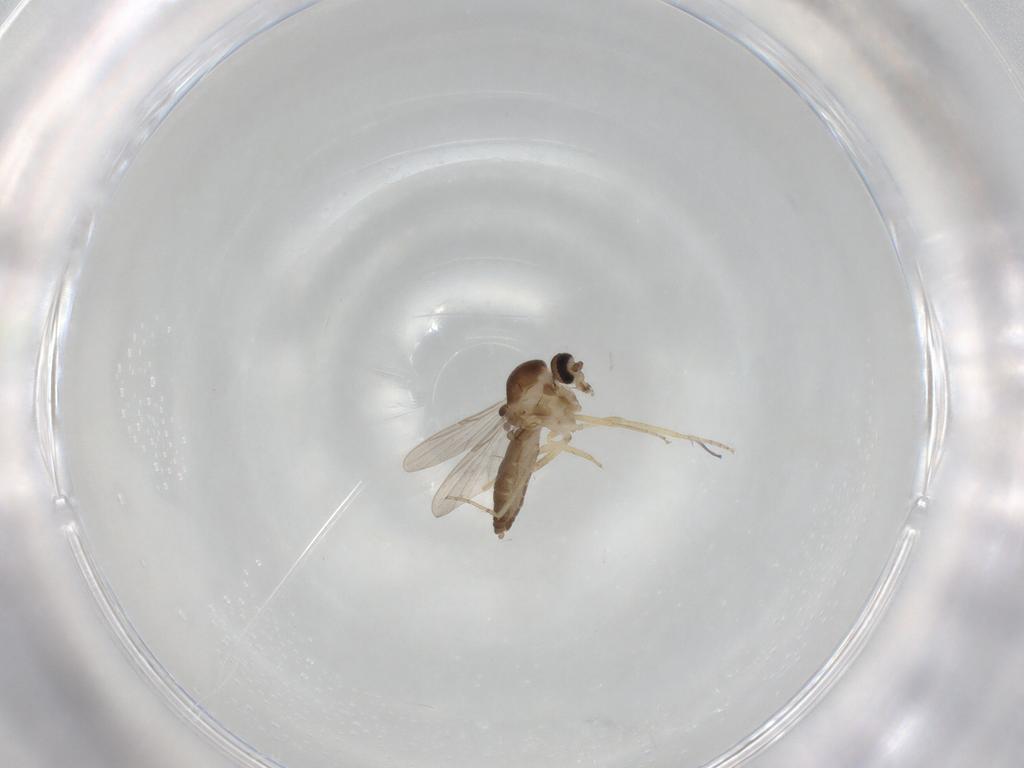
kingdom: Animalia
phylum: Arthropoda
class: Insecta
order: Diptera
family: Ceratopogonidae
